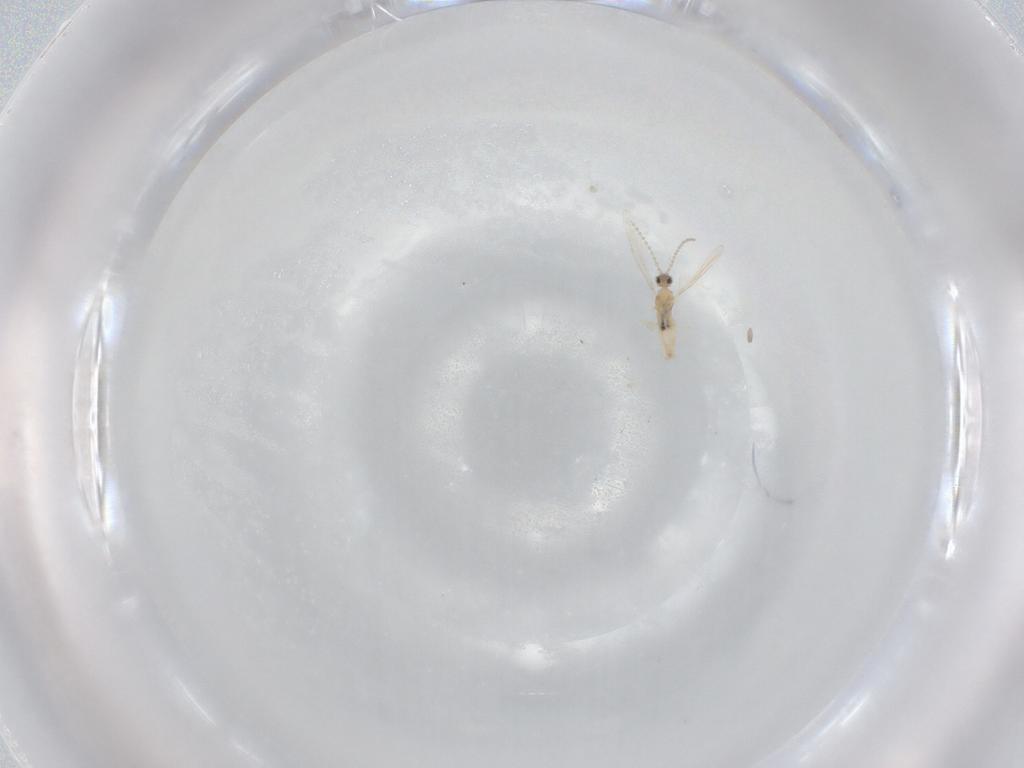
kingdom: Animalia
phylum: Arthropoda
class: Insecta
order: Diptera
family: Cecidomyiidae
